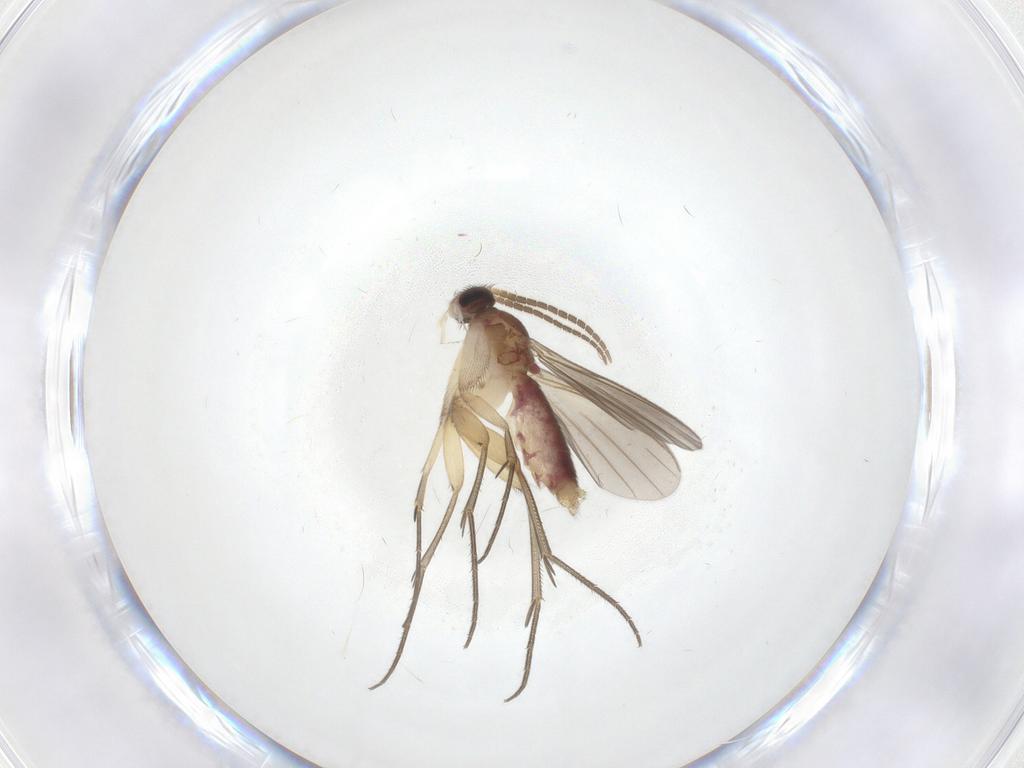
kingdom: Animalia
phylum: Arthropoda
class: Insecta
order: Diptera
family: Mycetophilidae
